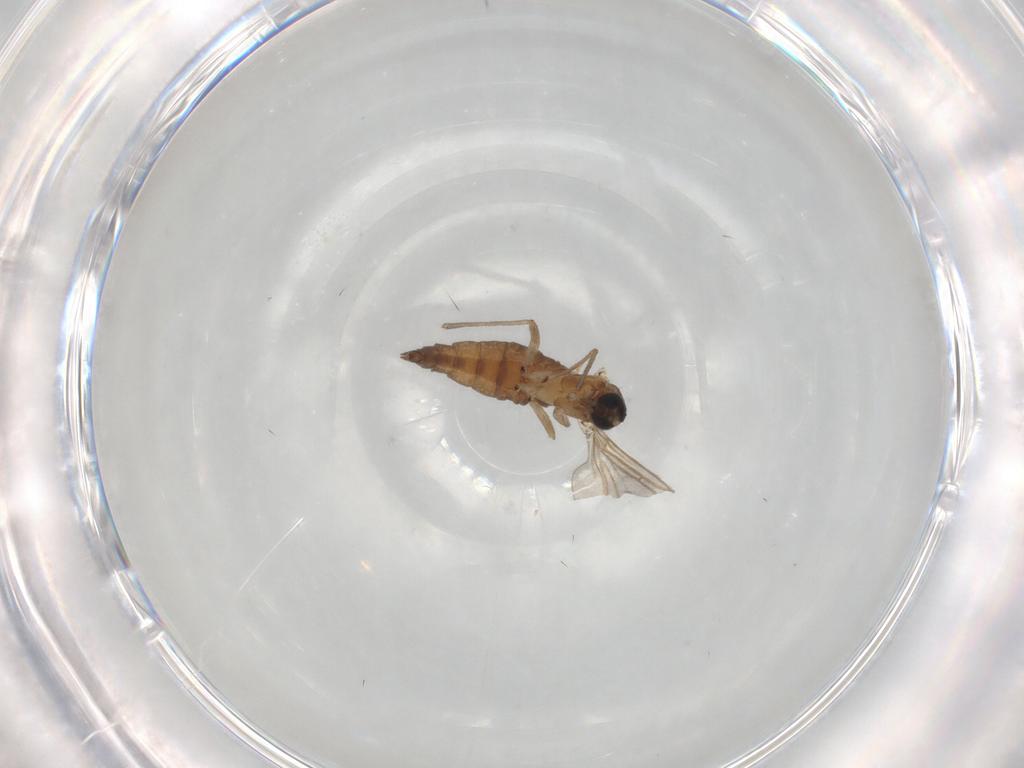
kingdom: Animalia
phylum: Arthropoda
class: Insecta
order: Diptera
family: Sciaridae
